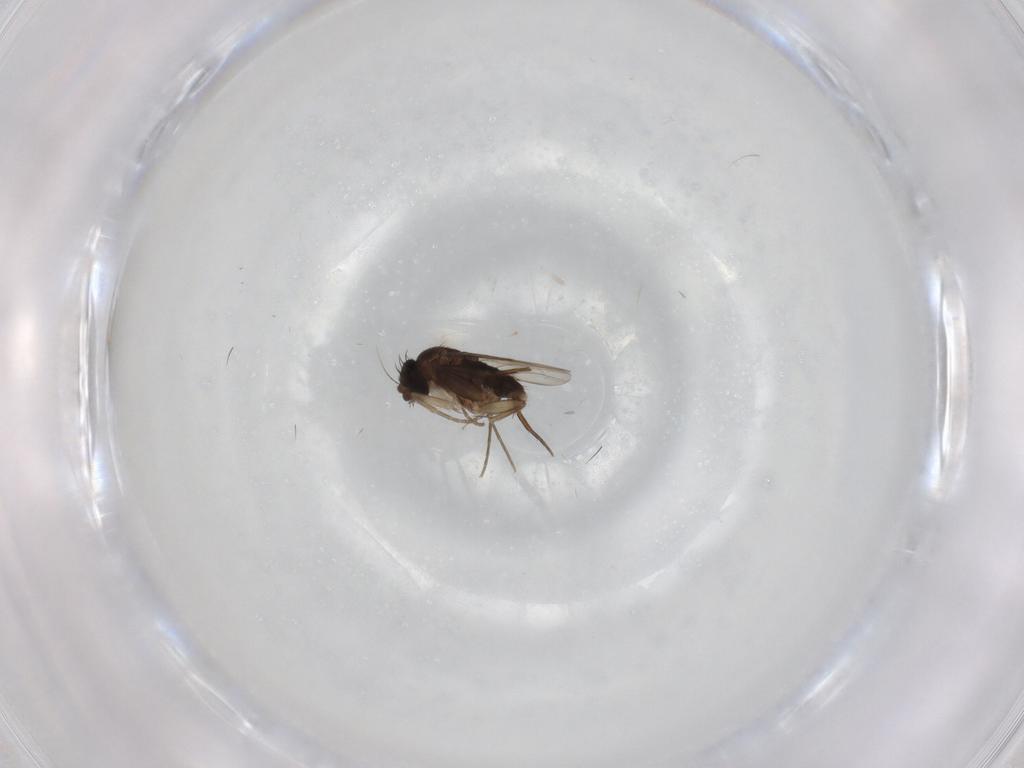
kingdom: Animalia
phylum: Arthropoda
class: Insecta
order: Diptera
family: Phoridae
